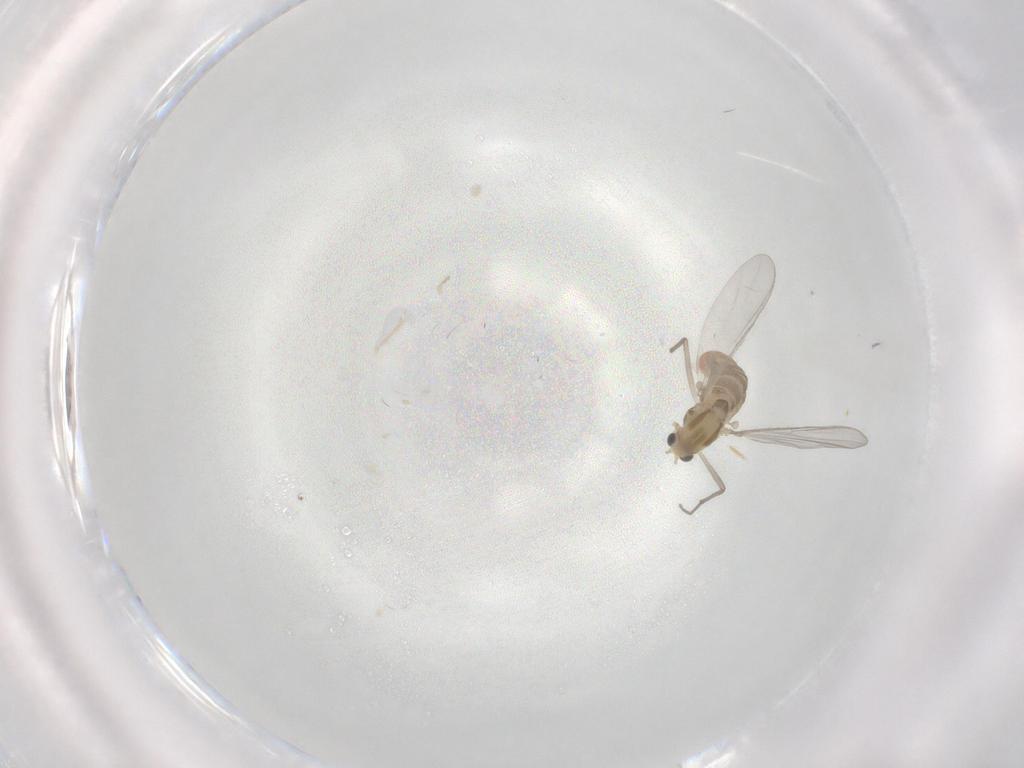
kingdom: Animalia
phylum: Arthropoda
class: Insecta
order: Diptera
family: Chironomidae
